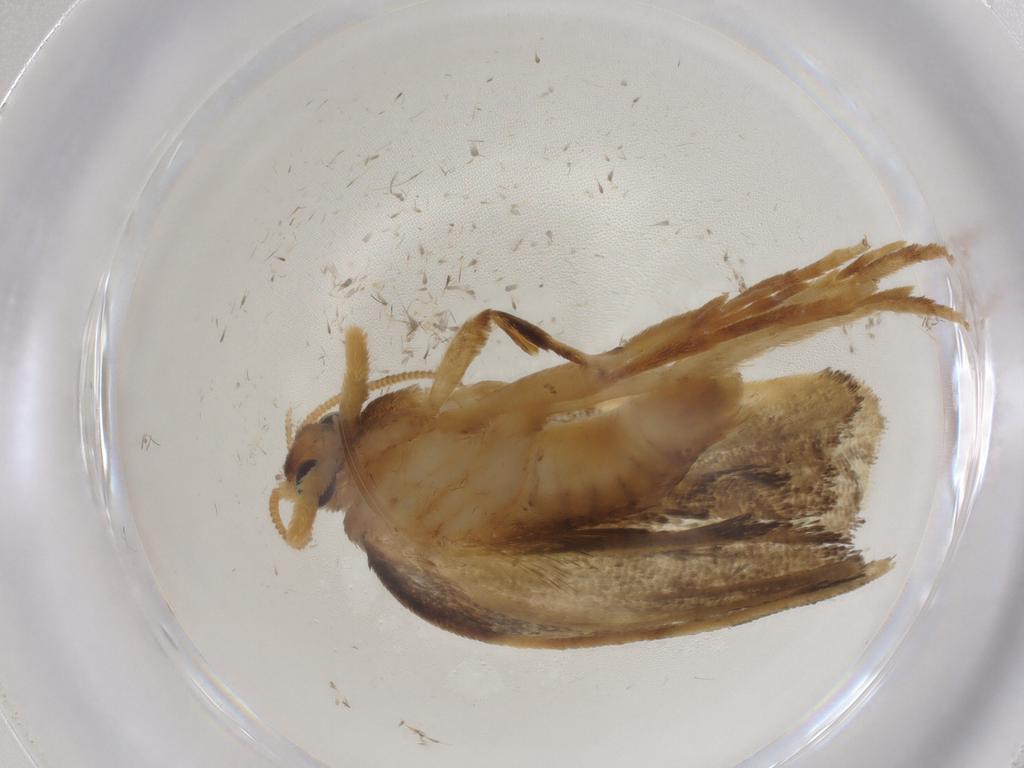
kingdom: Animalia
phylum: Arthropoda
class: Insecta
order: Lepidoptera
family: Psychidae
